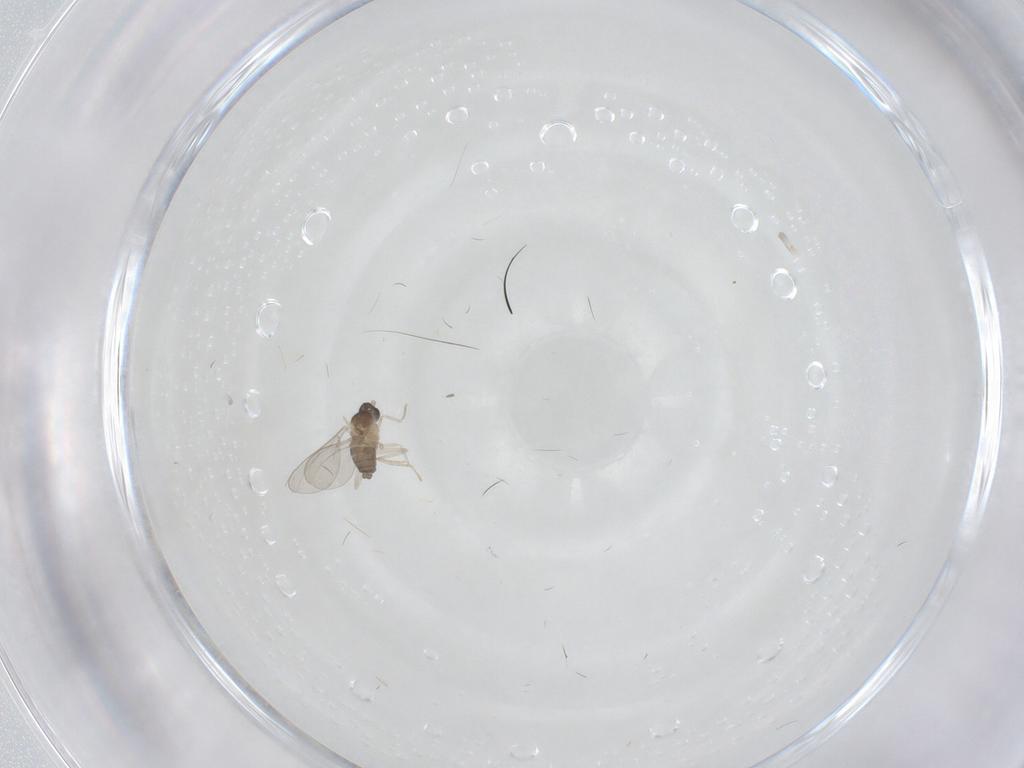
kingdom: Animalia
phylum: Arthropoda
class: Insecta
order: Diptera
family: Cecidomyiidae
